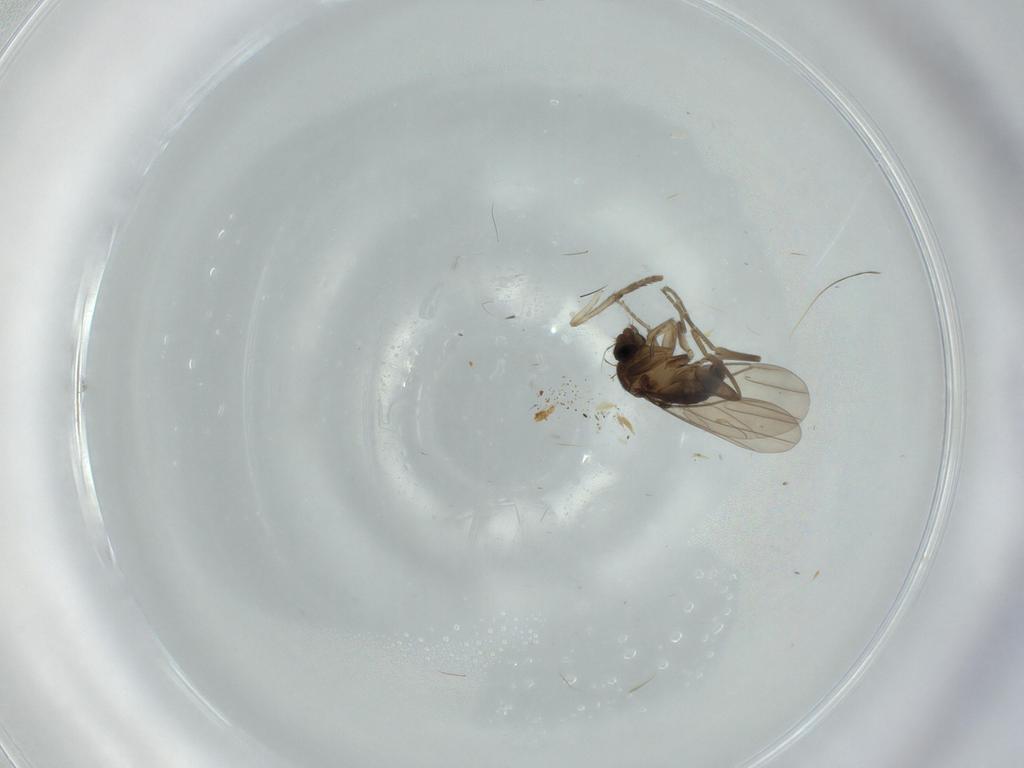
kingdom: Animalia
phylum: Arthropoda
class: Insecta
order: Diptera
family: Psychodidae
